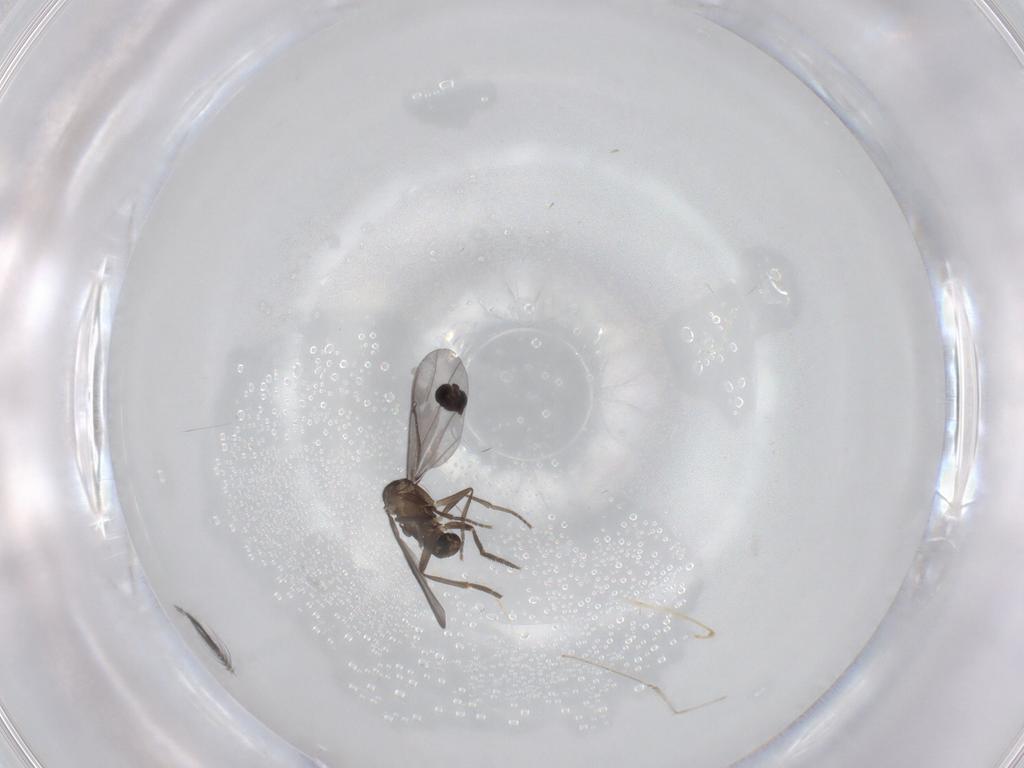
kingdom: Animalia
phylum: Arthropoda
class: Insecta
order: Diptera
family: Phoridae
